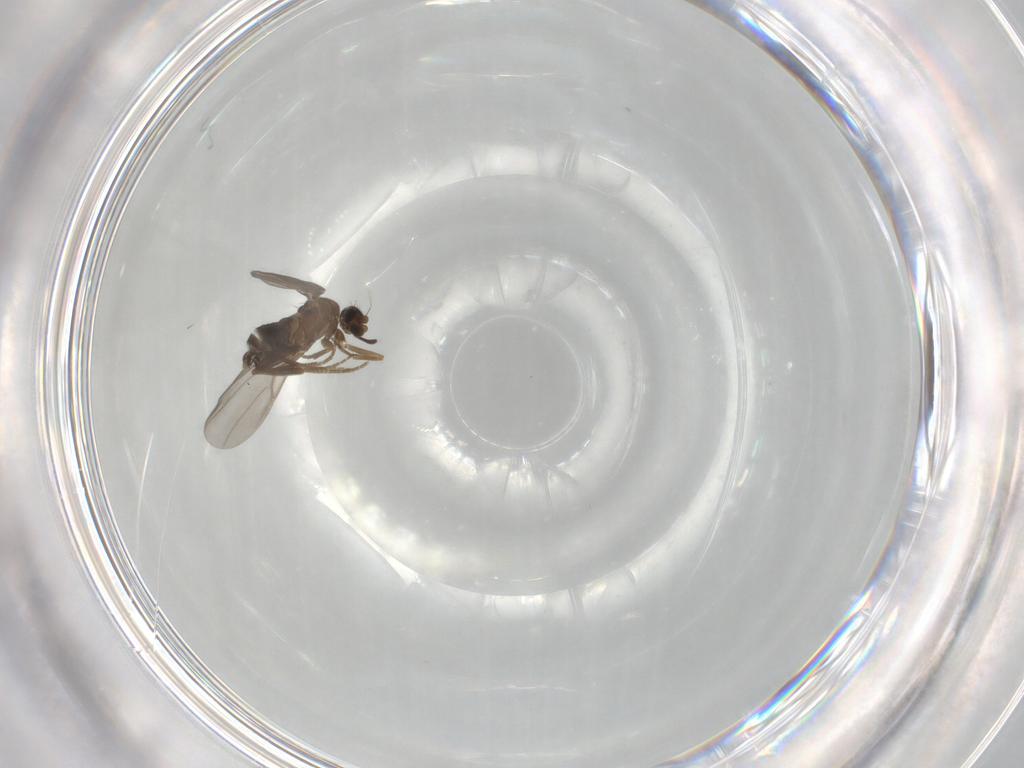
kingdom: Animalia
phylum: Arthropoda
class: Insecta
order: Diptera
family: Chironomidae
